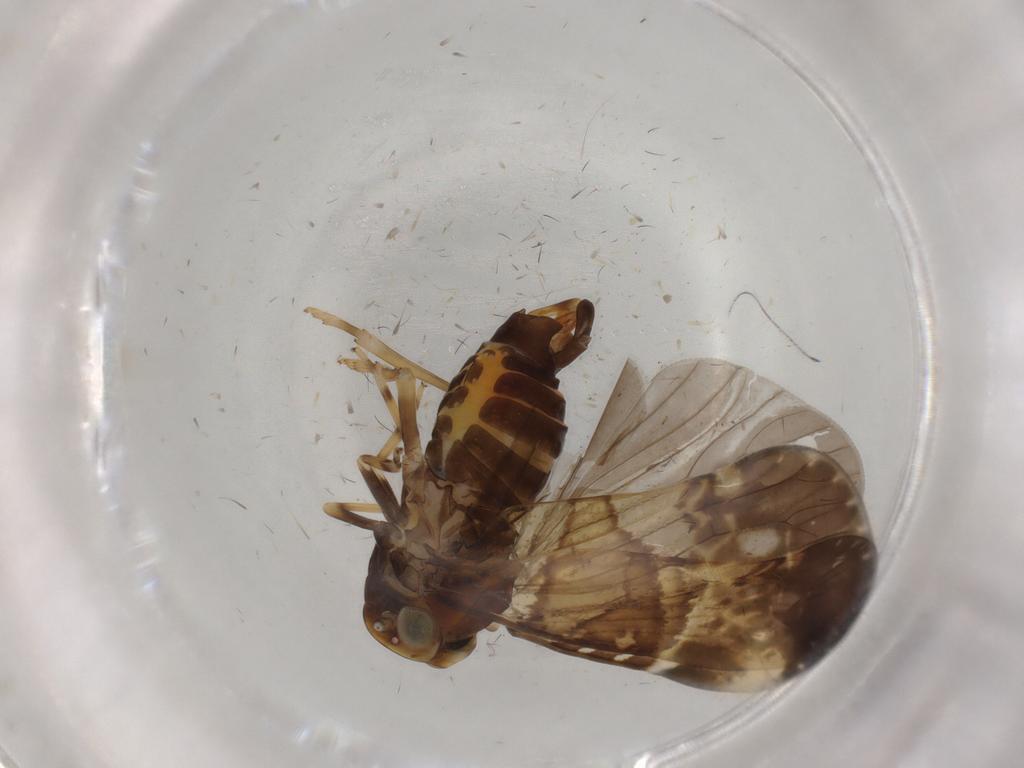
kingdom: Animalia
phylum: Arthropoda
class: Insecta
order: Hemiptera
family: Cixiidae
